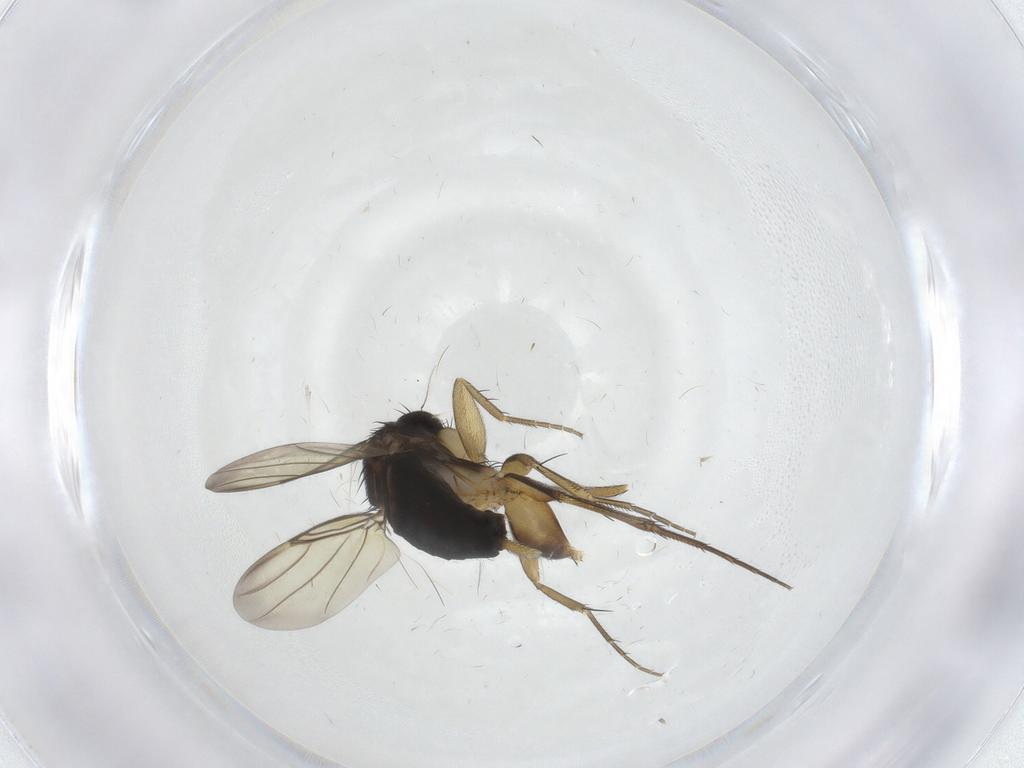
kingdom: Animalia
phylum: Arthropoda
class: Insecta
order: Diptera
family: Phoridae
